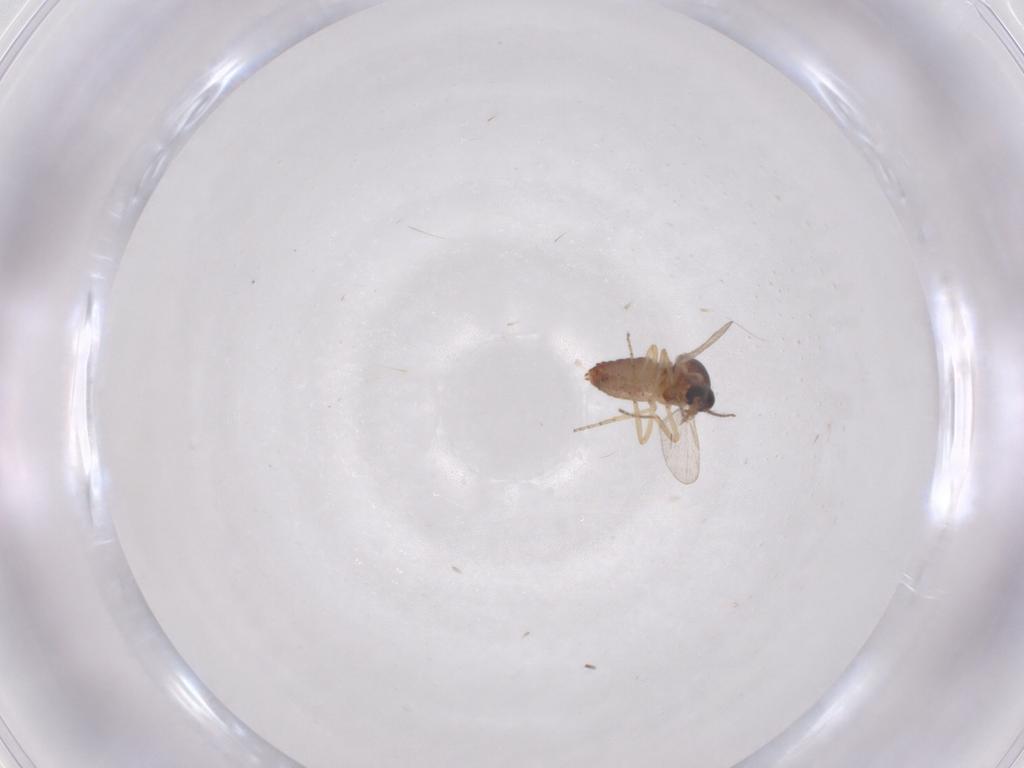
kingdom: Animalia
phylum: Arthropoda
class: Insecta
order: Diptera
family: Ceratopogonidae
